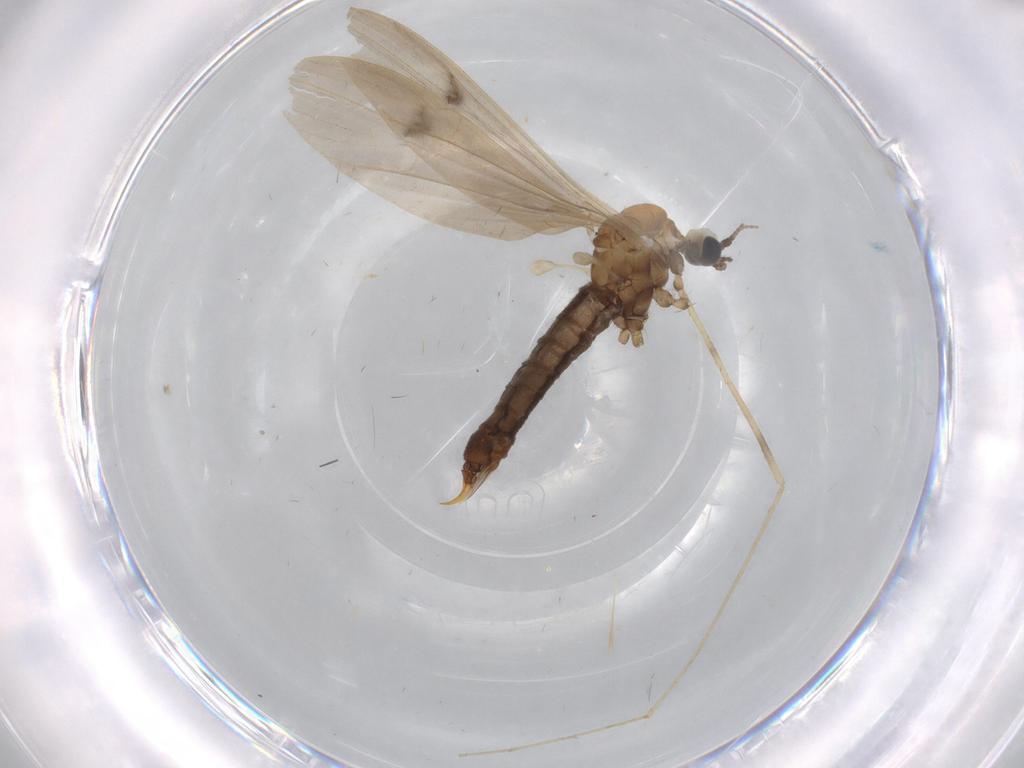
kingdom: Animalia
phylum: Arthropoda
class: Insecta
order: Diptera
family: Limoniidae
